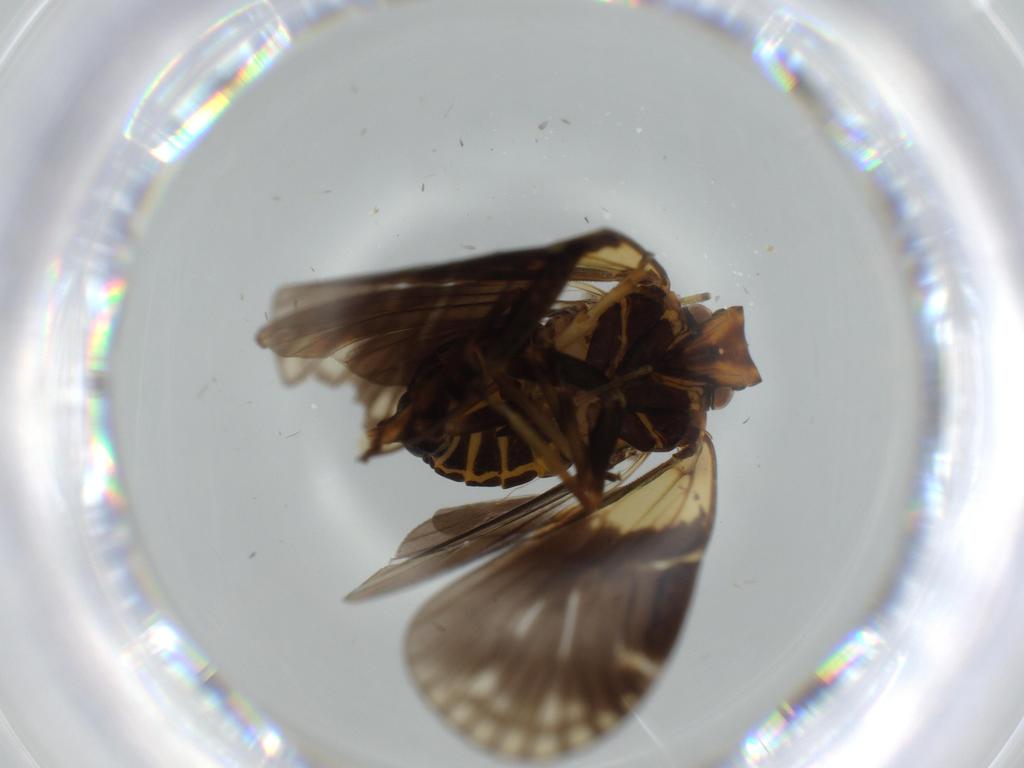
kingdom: Animalia
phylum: Arthropoda
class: Insecta
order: Hemiptera
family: Cixiidae
